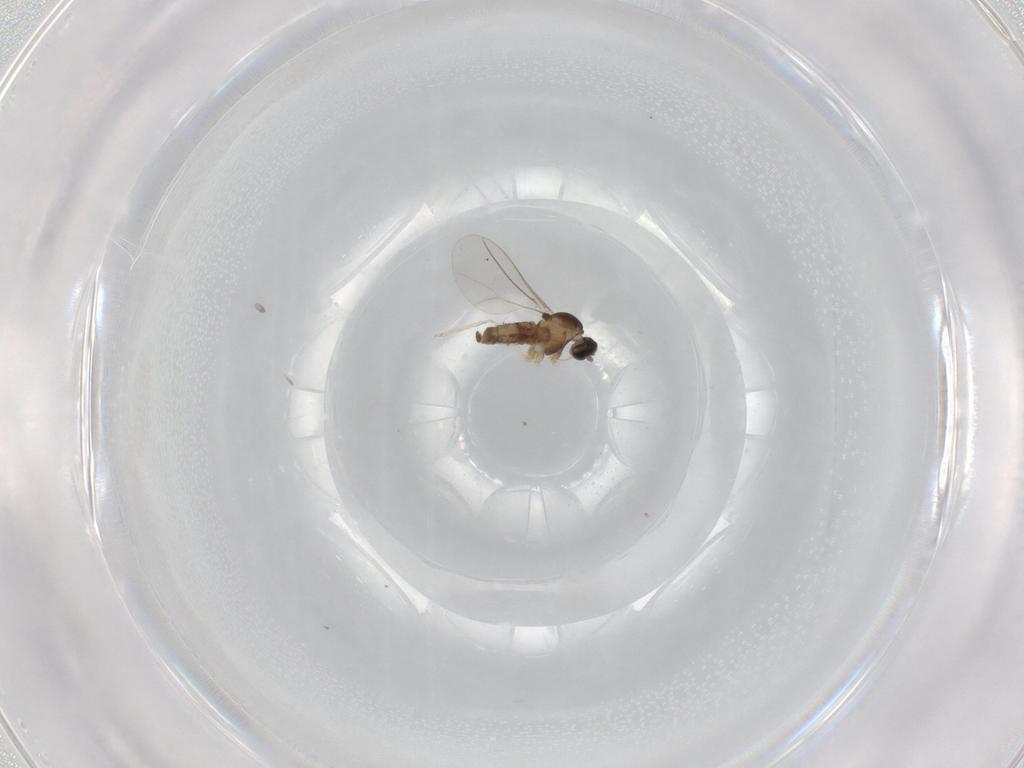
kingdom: Animalia
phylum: Arthropoda
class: Insecta
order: Diptera
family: Cecidomyiidae
